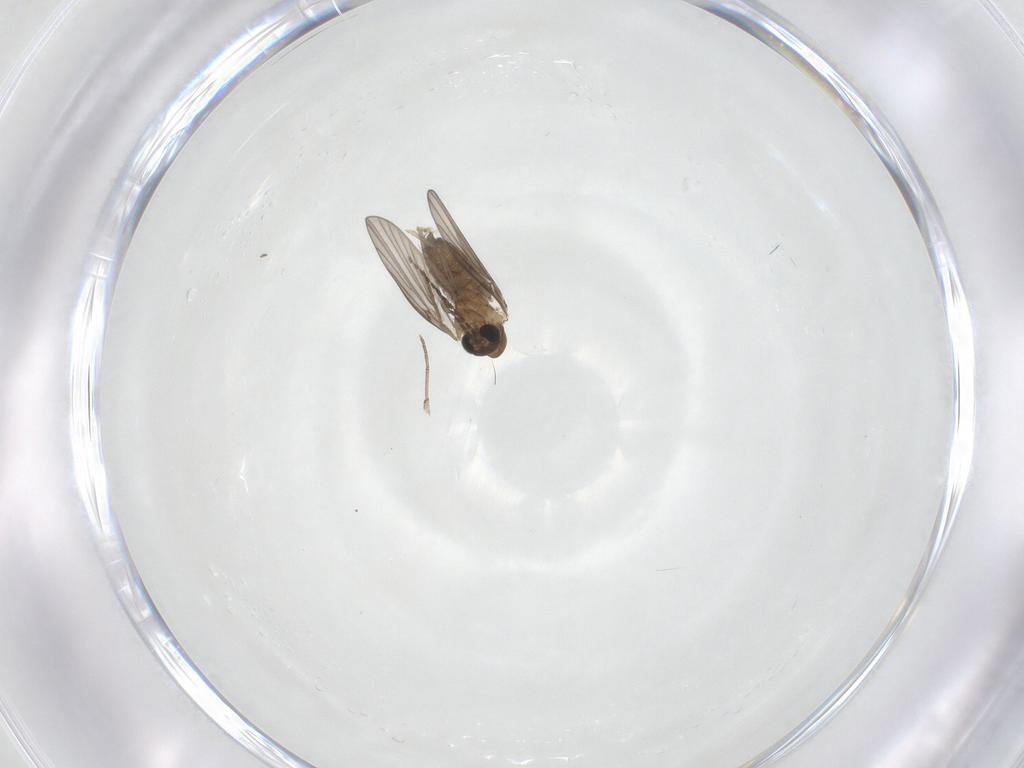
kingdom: Animalia
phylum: Arthropoda
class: Insecta
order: Diptera
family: Psychodidae
